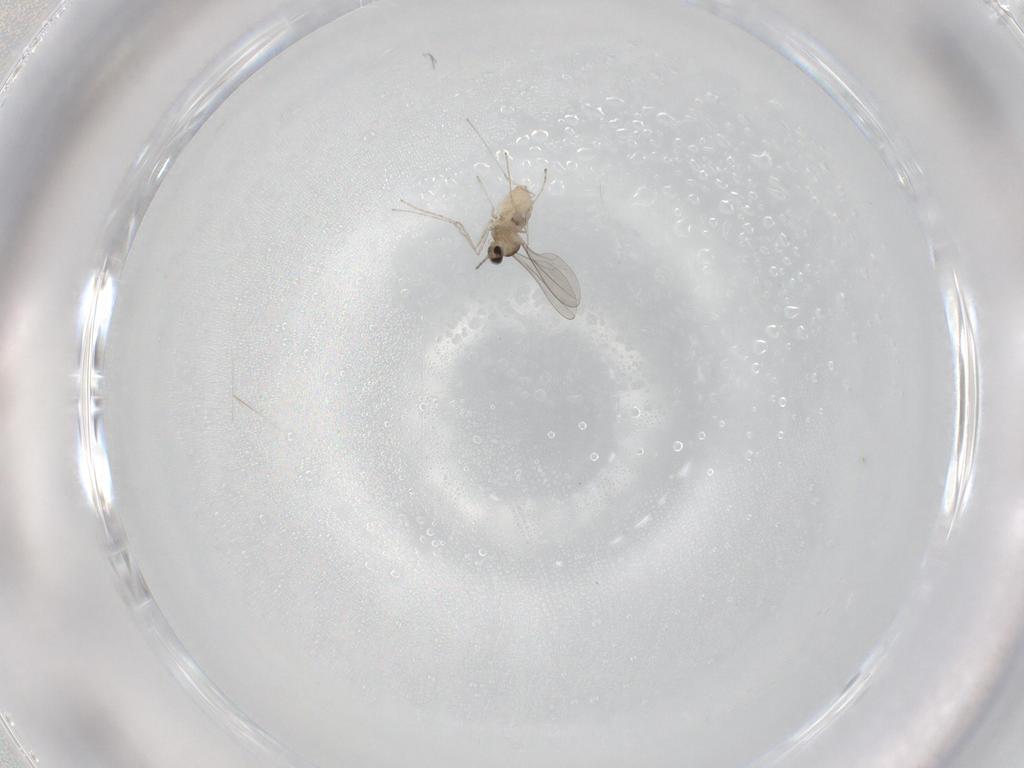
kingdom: Animalia
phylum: Arthropoda
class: Insecta
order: Diptera
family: Cecidomyiidae
